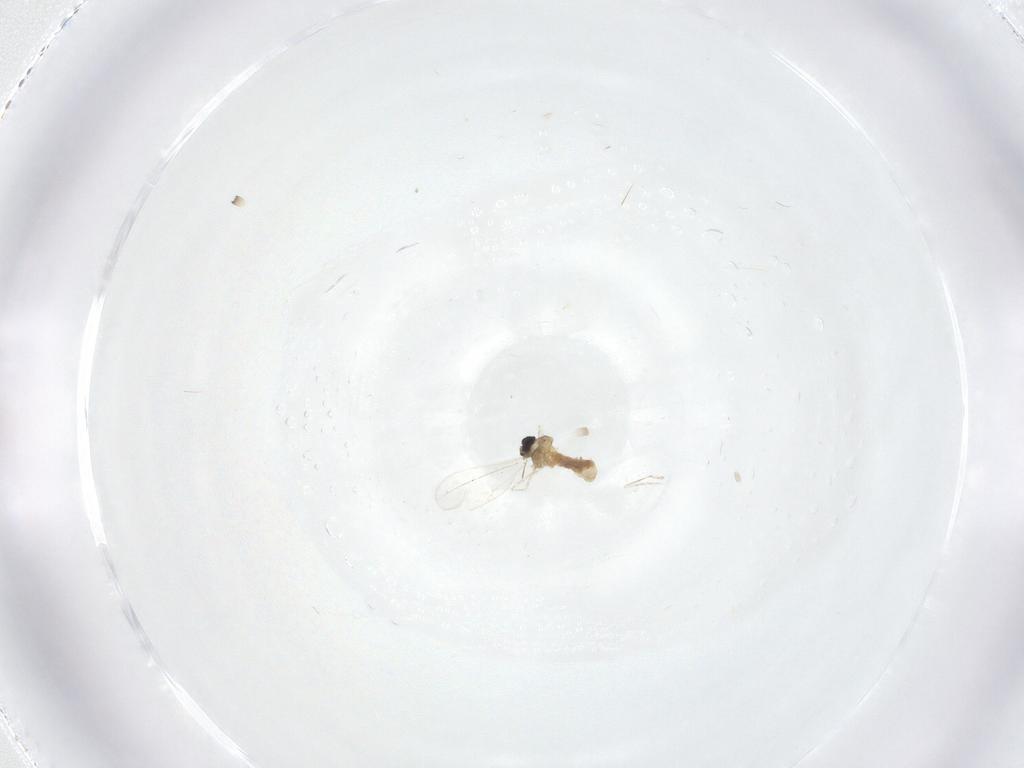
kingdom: Animalia
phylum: Arthropoda
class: Insecta
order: Diptera
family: Cecidomyiidae
